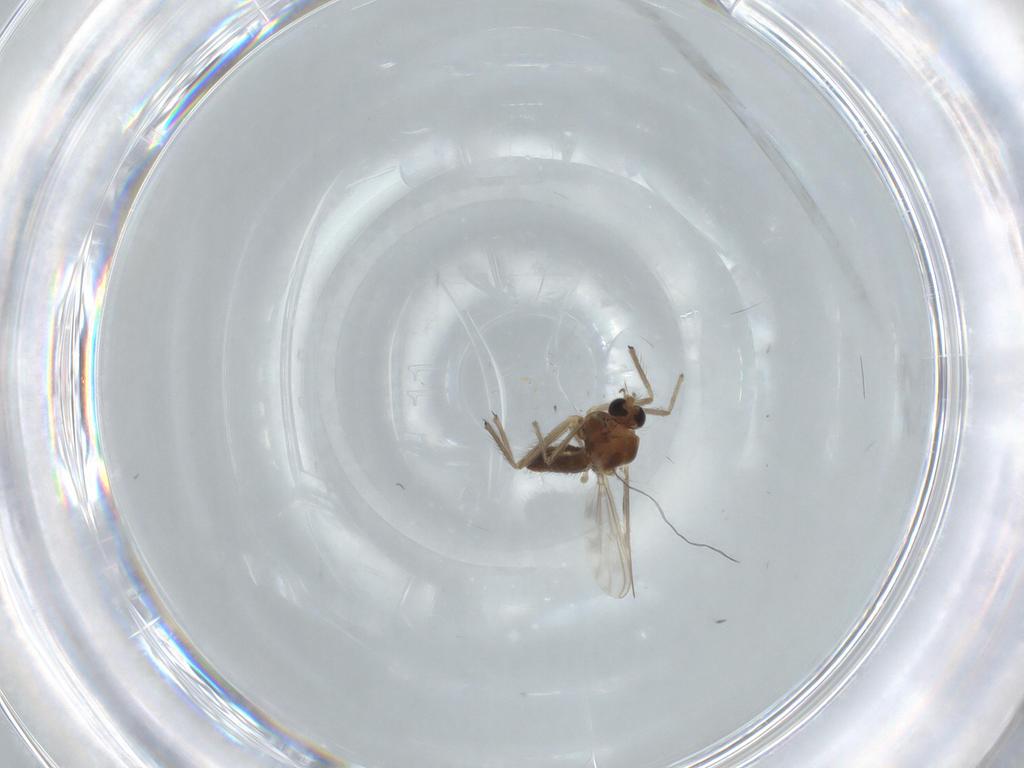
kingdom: Animalia
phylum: Arthropoda
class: Insecta
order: Diptera
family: Chironomidae
